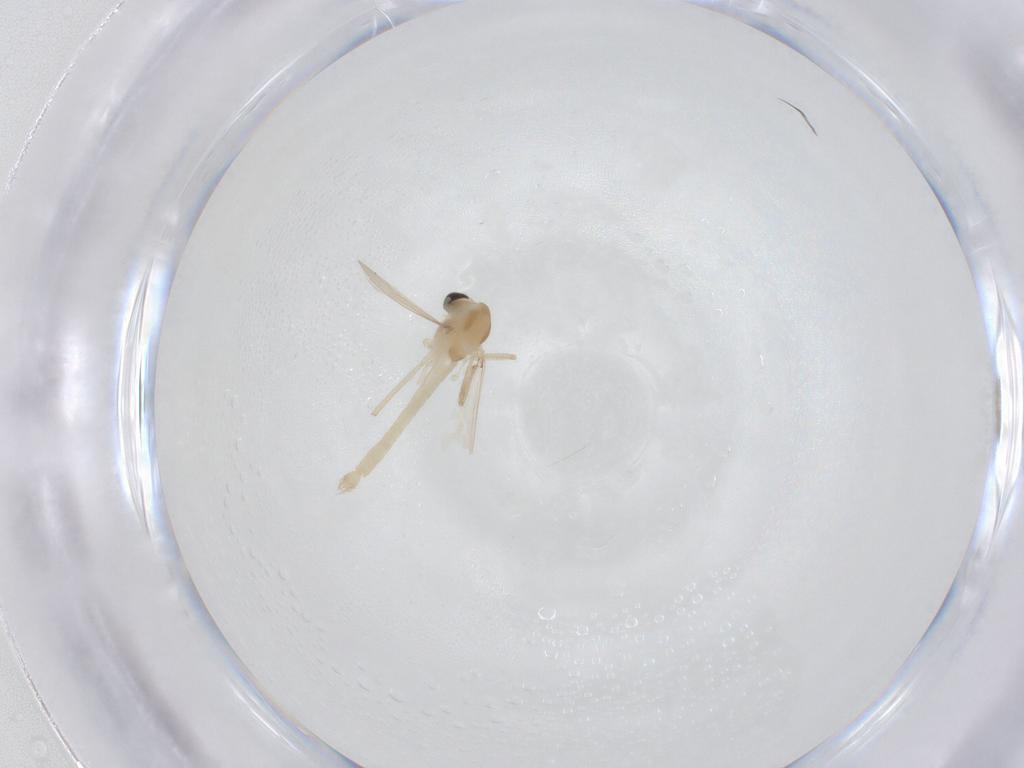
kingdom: Animalia
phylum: Arthropoda
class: Insecta
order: Diptera
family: Chironomidae
